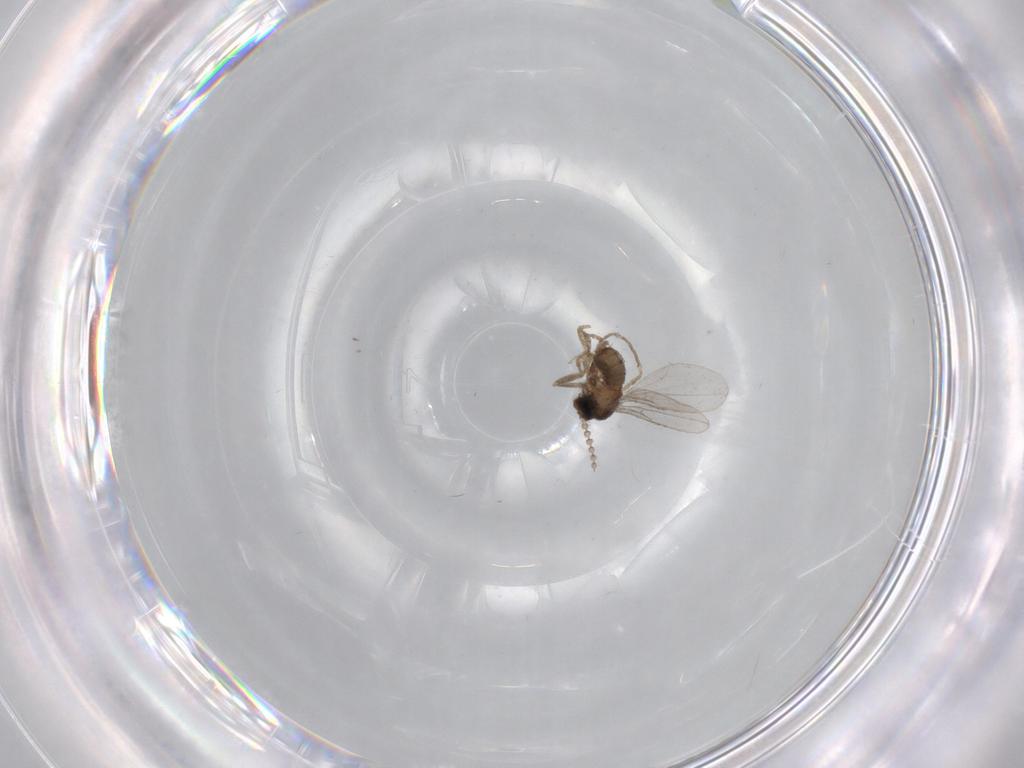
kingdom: Animalia
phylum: Arthropoda
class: Insecta
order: Diptera
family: Cecidomyiidae
